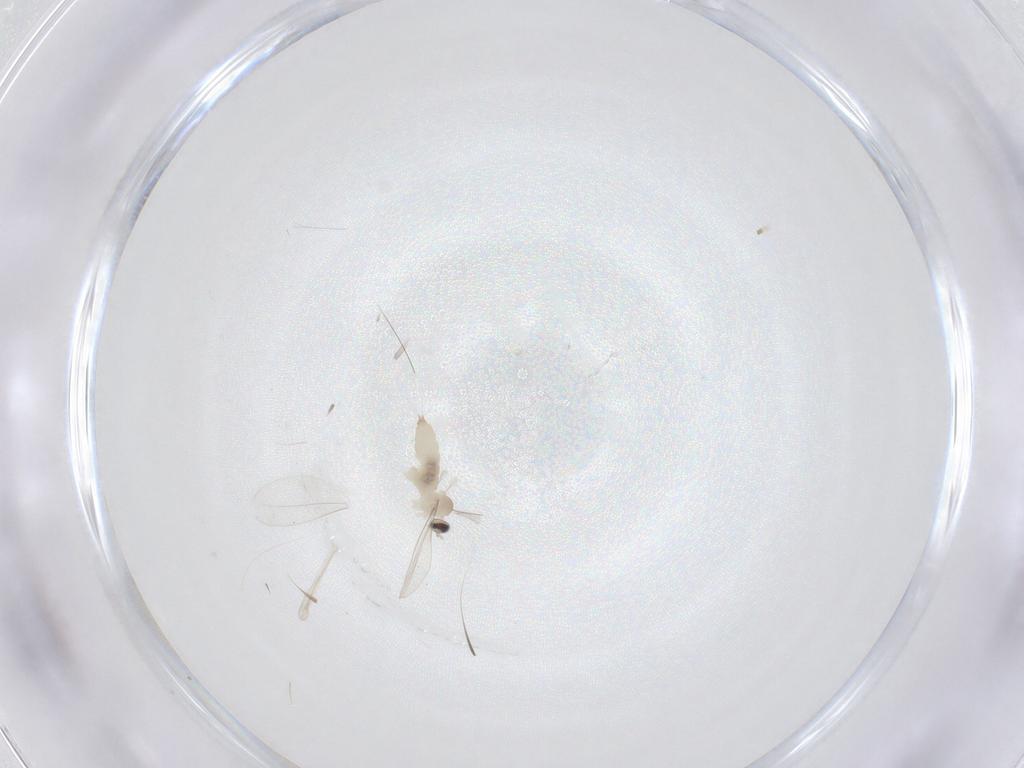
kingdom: Animalia
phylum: Arthropoda
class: Insecta
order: Diptera
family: Cecidomyiidae
